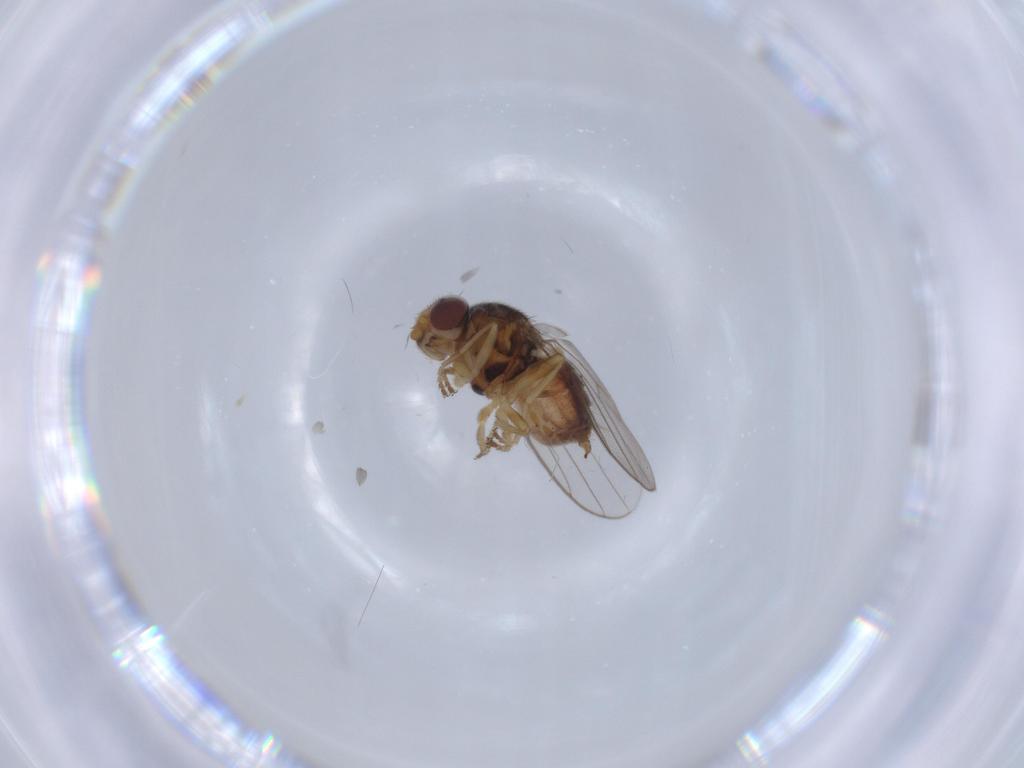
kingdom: Animalia
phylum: Arthropoda
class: Insecta
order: Diptera
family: Chloropidae
